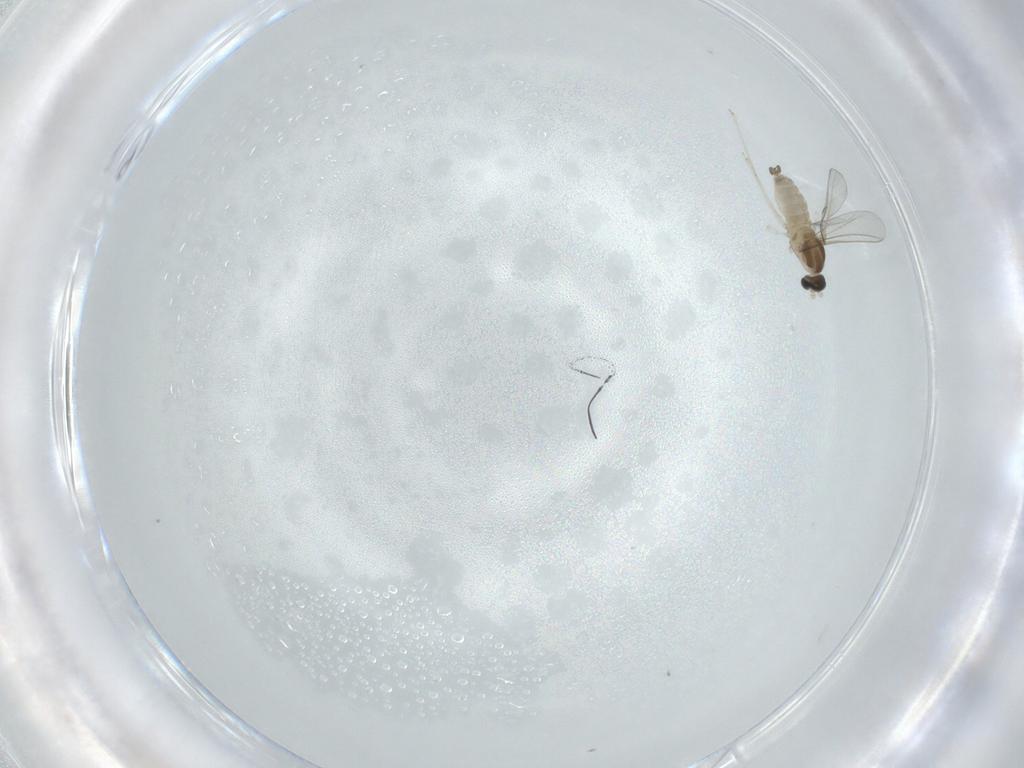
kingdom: Animalia
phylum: Arthropoda
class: Insecta
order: Diptera
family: Cecidomyiidae
